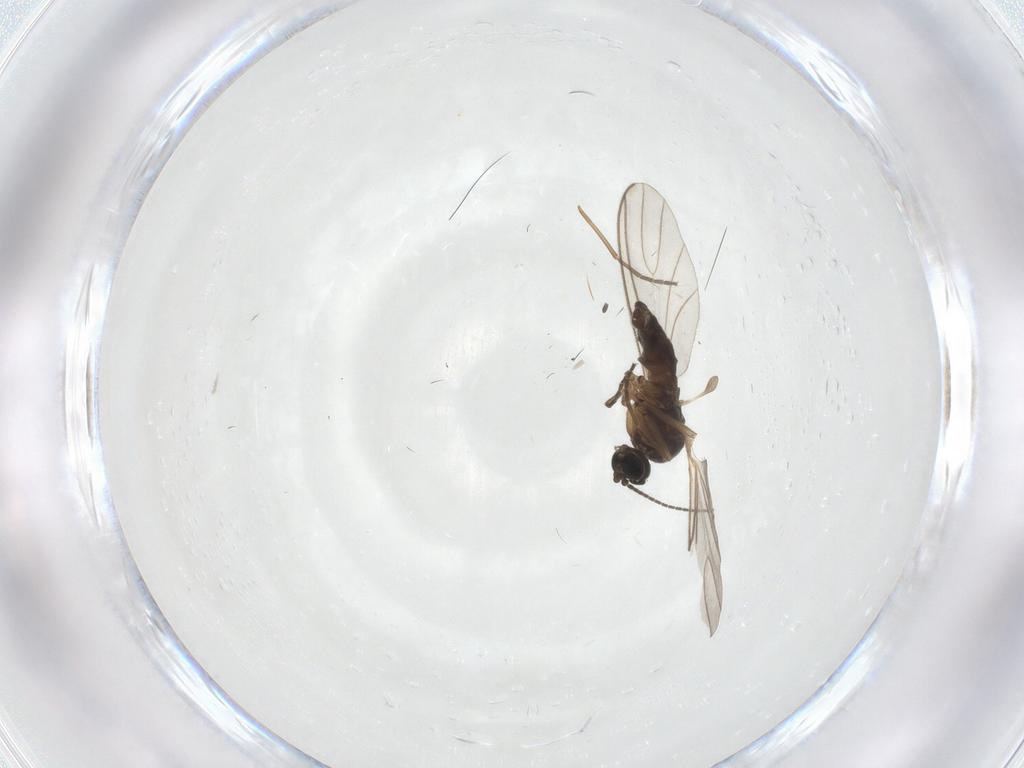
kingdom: Animalia
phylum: Arthropoda
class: Insecta
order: Diptera
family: Sciaridae
